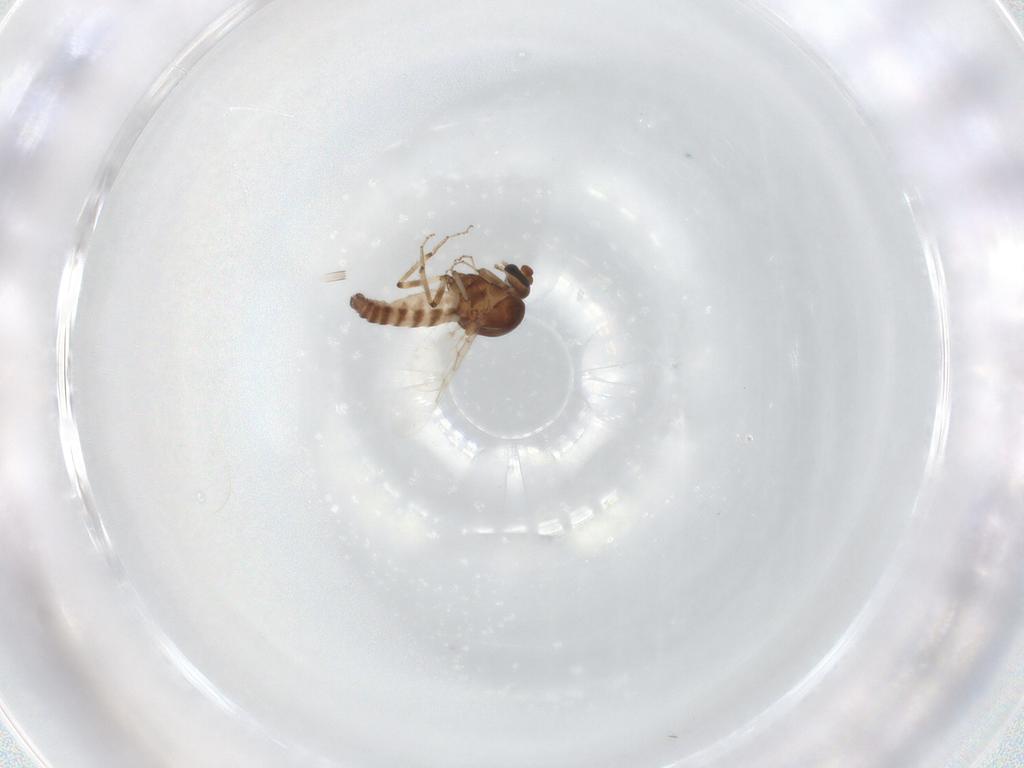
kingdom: Animalia
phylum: Arthropoda
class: Insecta
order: Diptera
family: Ceratopogonidae
